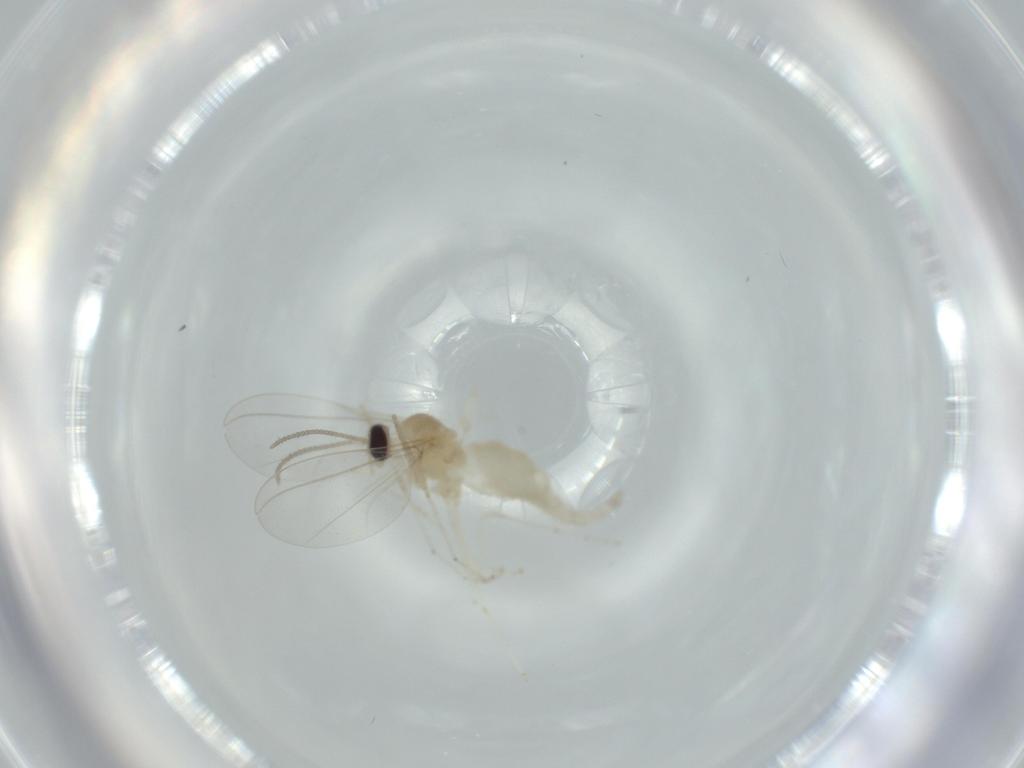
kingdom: Animalia
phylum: Arthropoda
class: Insecta
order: Diptera
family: Cecidomyiidae
